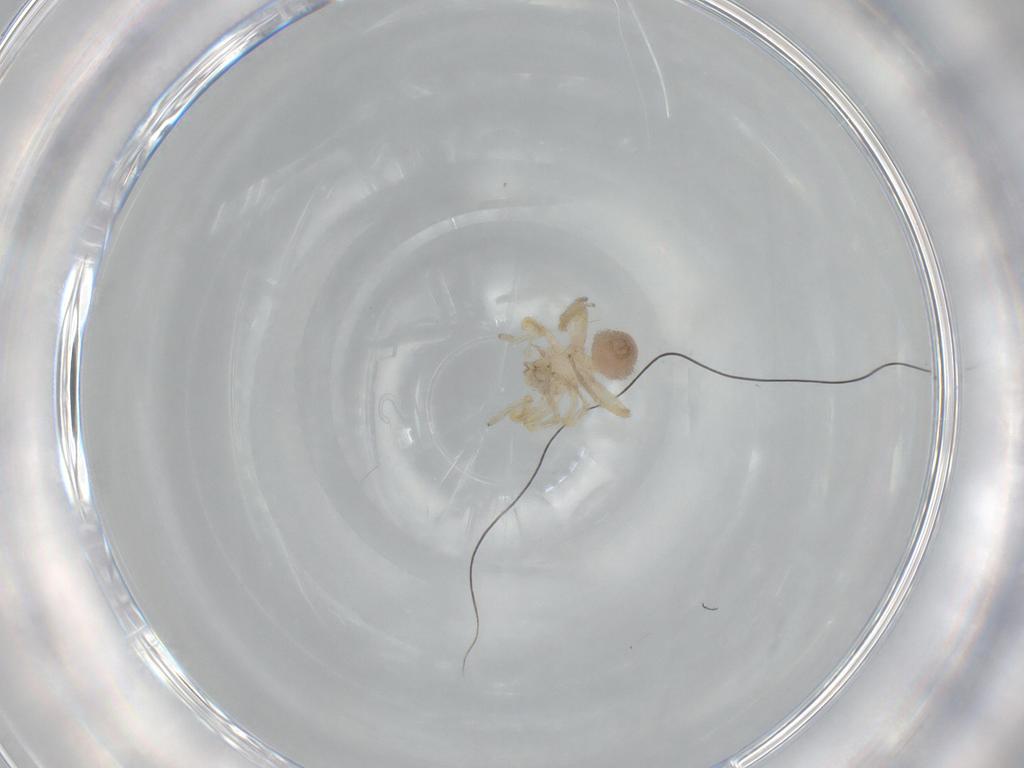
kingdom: Animalia
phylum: Arthropoda
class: Arachnida
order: Araneae
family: Oonopidae
